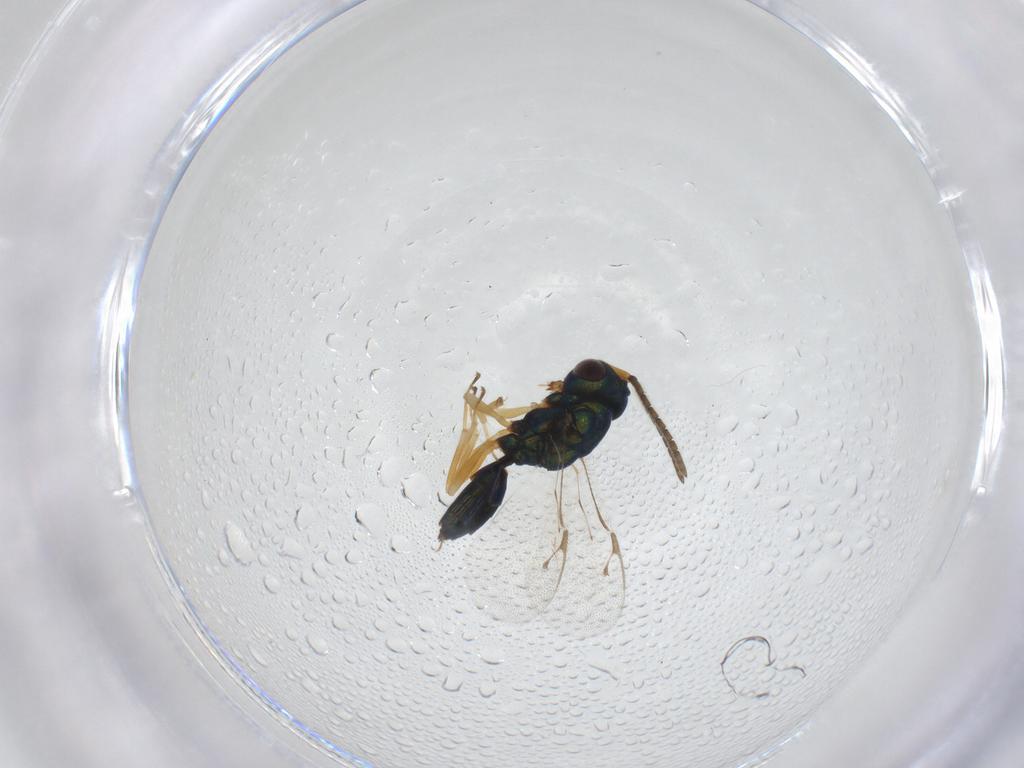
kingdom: Animalia
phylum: Arthropoda
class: Insecta
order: Hymenoptera
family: Pteromalidae
